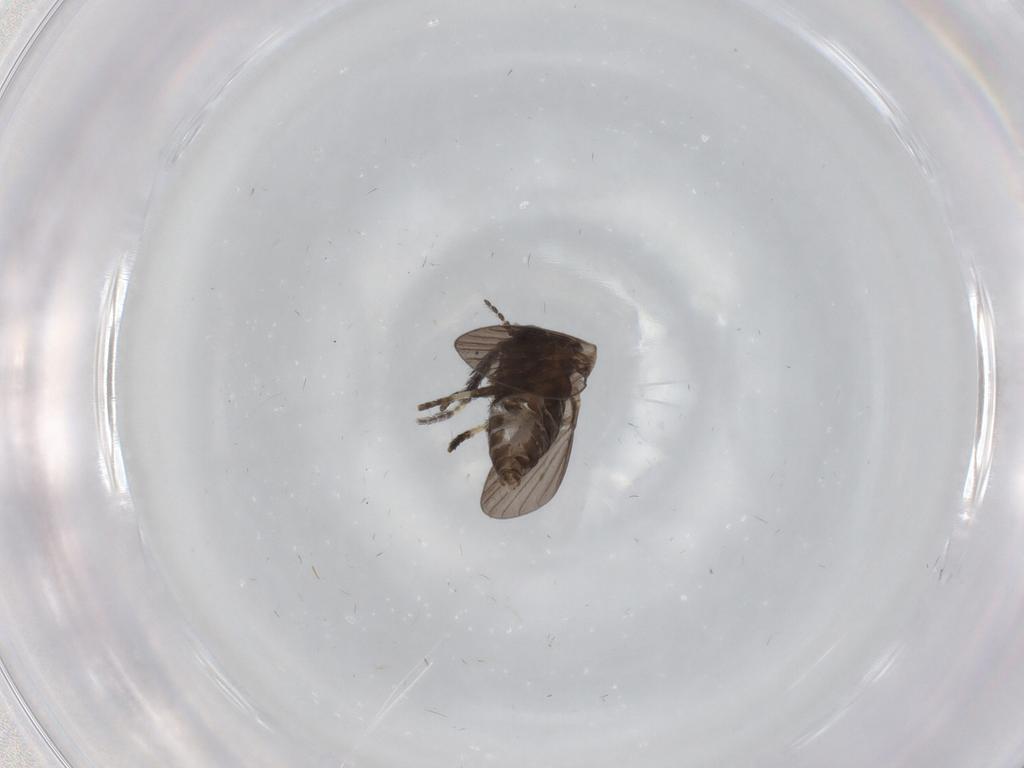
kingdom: Animalia
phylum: Arthropoda
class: Insecta
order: Diptera
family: Psychodidae
